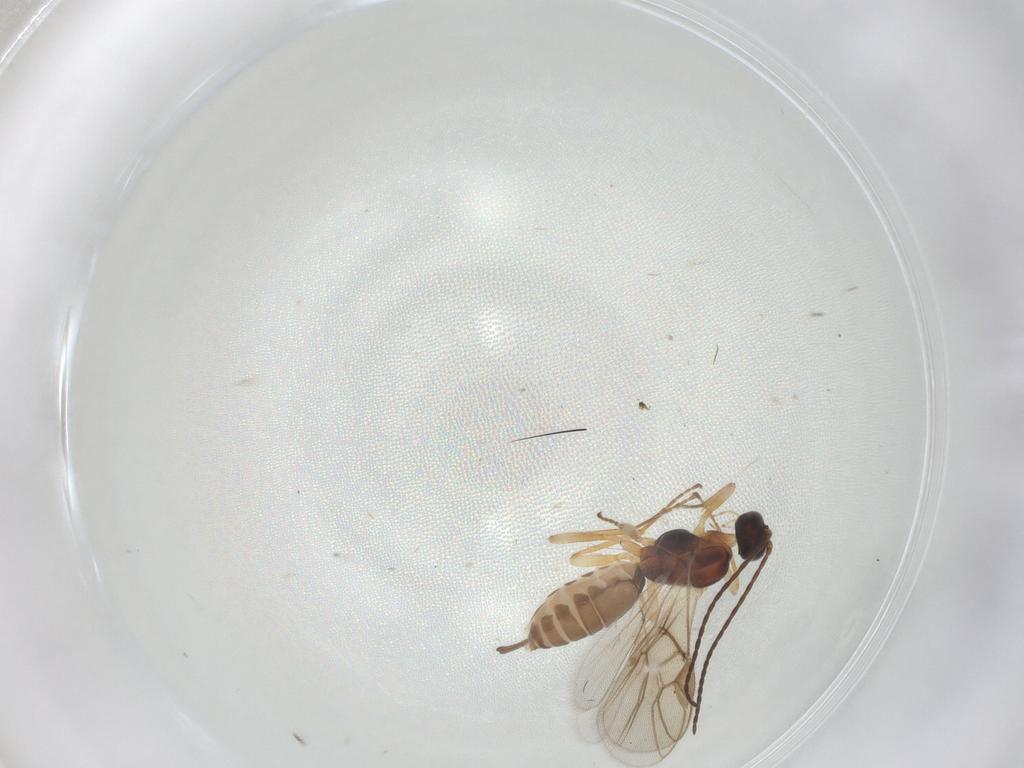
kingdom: Animalia
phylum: Arthropoda
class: Insecta
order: Hymenoptera
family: Braconidae
